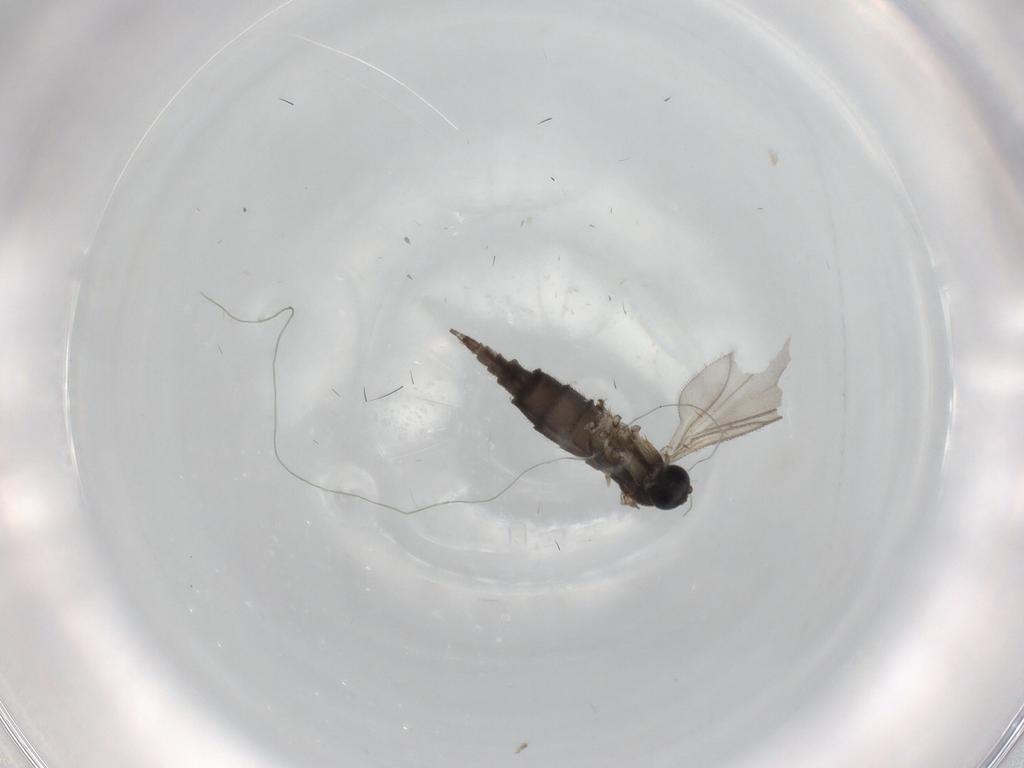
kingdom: Animalia
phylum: Arthropoda
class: Insecta
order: Diptera
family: Sciaridae
